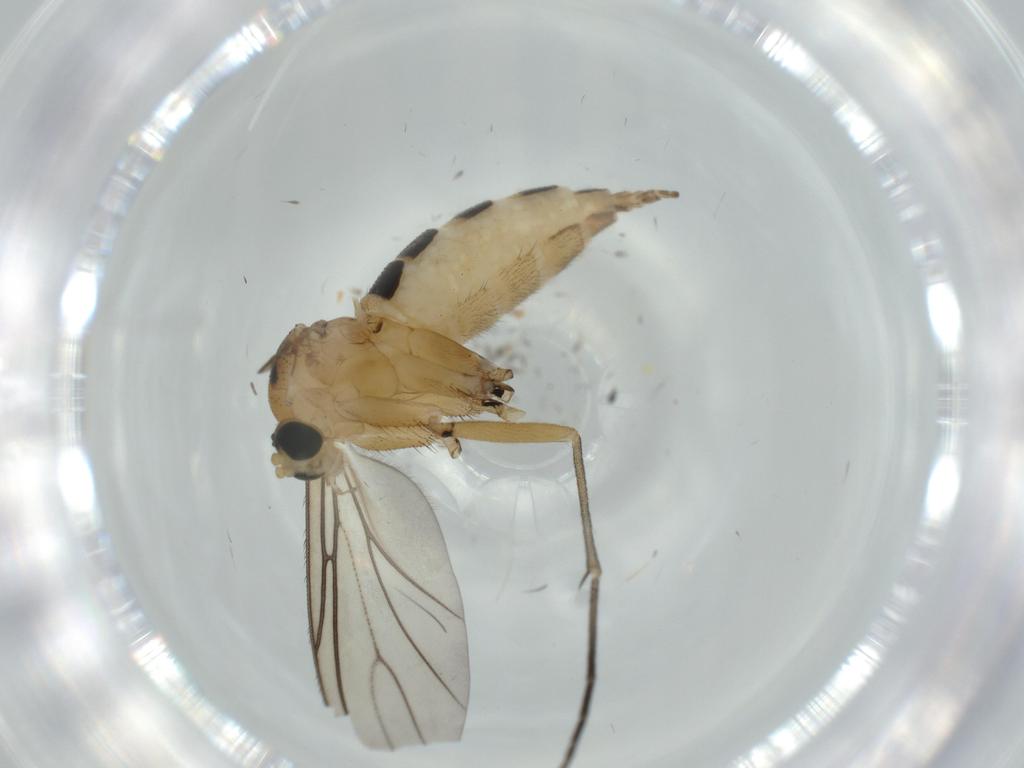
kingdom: Animalia
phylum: Arthropoda
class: Insecta
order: Diptera
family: Sciaridae
